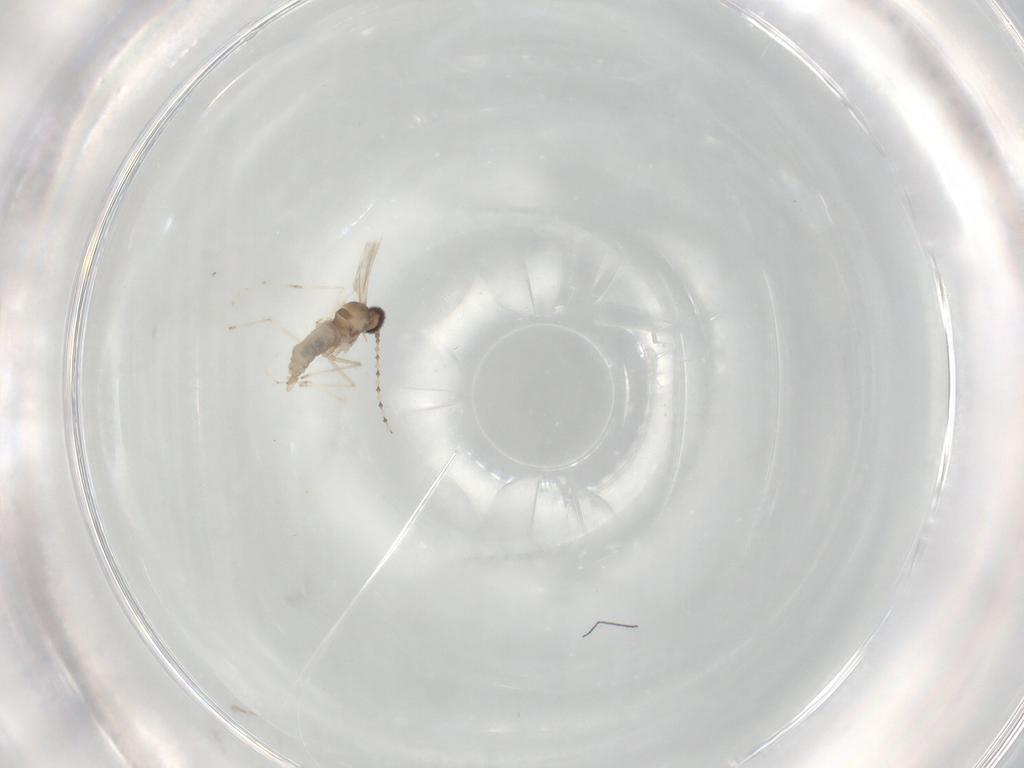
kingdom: Animalia
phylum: Arthropoda
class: Insecta
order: Diptera
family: Cecidomyiidae
